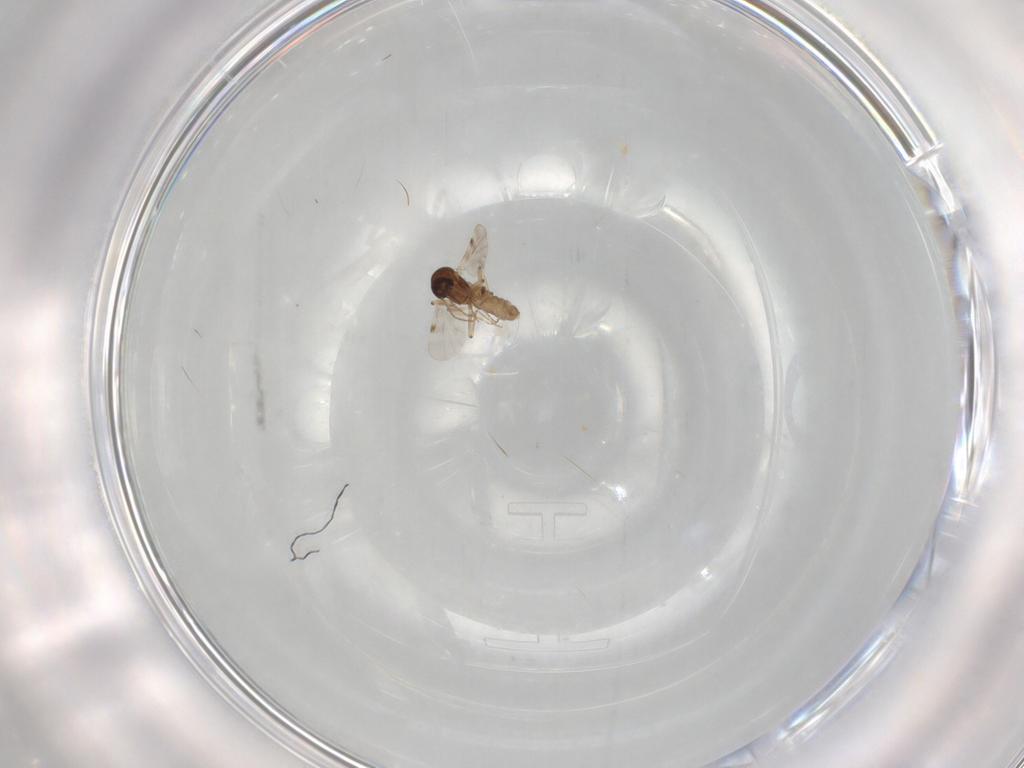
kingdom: Animalia
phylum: Arthropoda
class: Insecta
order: Diptera
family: Ceratopogonidae
